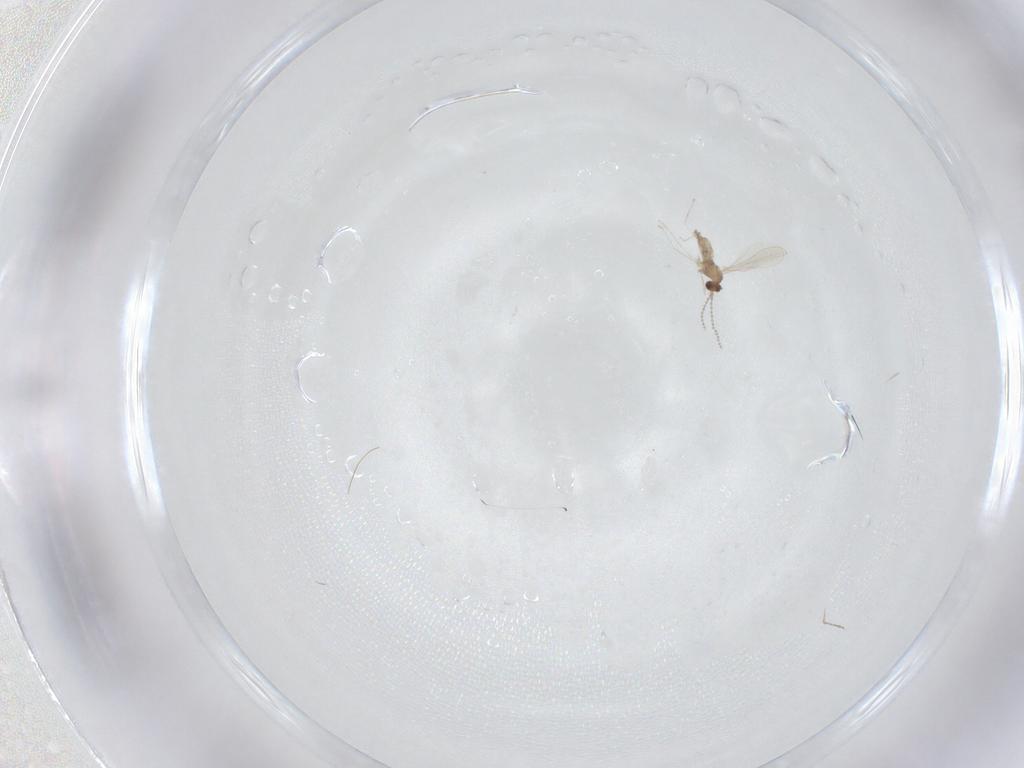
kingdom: Animalia
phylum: Arthropoda
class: Insecta
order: Diptera
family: Cecidomyiidae
